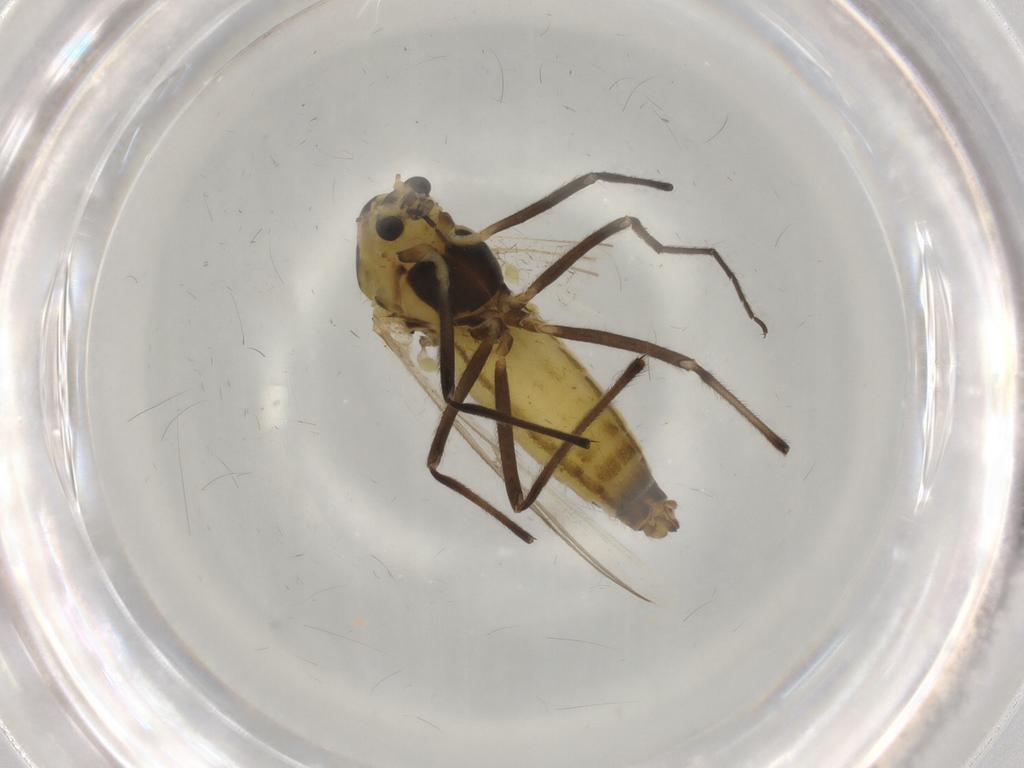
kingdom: Animalia
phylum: Arthropoda
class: Insecta
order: Diptera
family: Chironomidae
